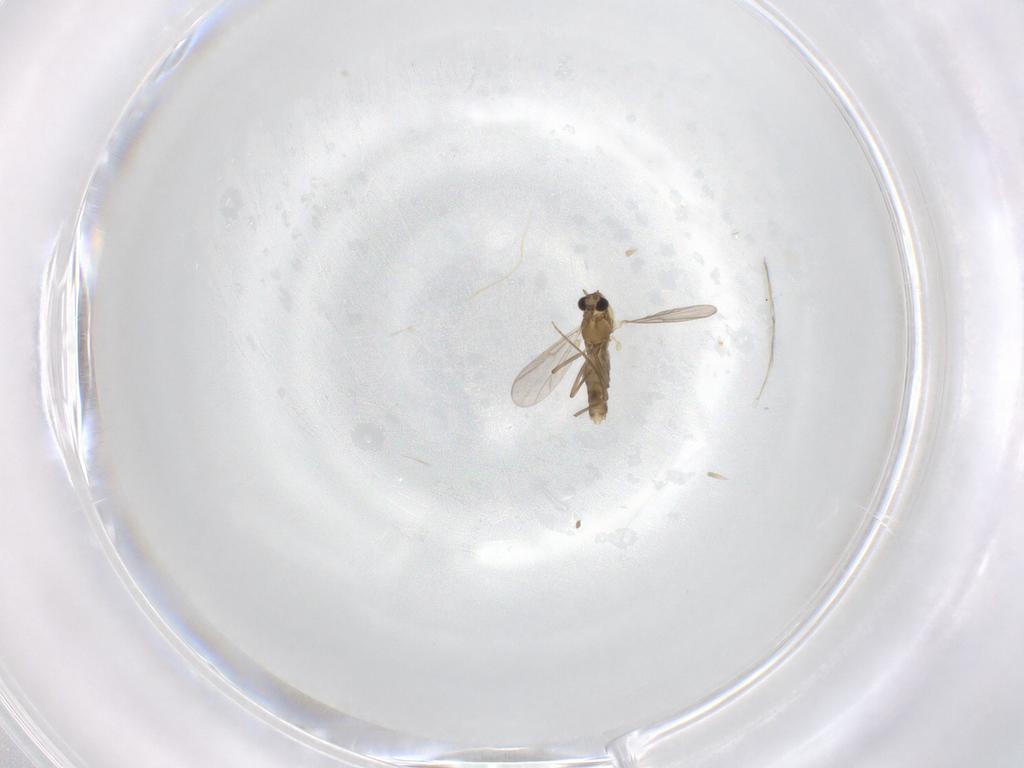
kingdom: Animalia
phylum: Arthropoda
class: Insecta
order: Diptera
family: Chironomidae
